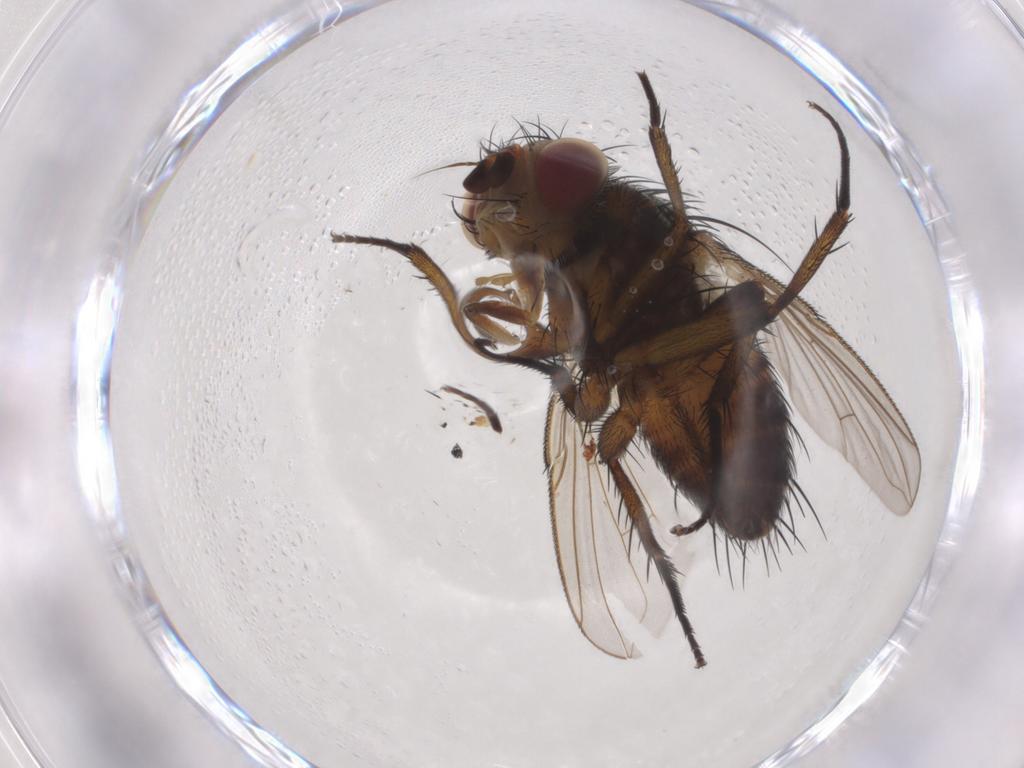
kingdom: Animalia
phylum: Arthropoda
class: Insecta
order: Diptera
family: Tachinidae
